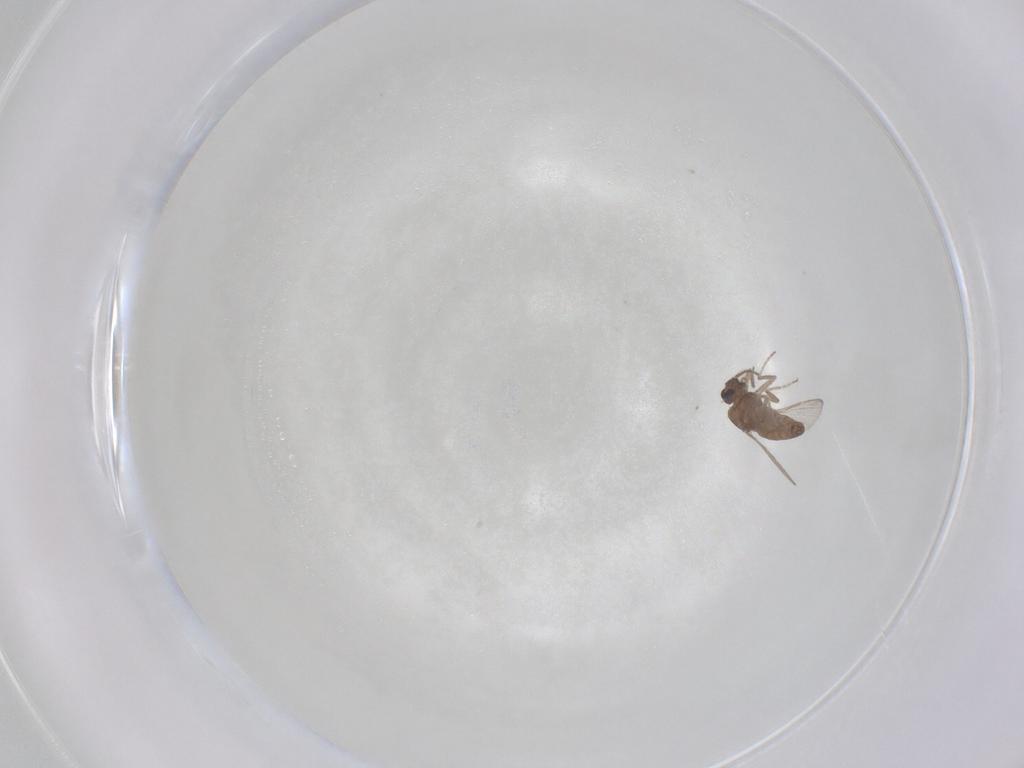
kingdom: Animalia
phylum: Arthropoda
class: Insecta
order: Diptera
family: Ceratopogonidae
